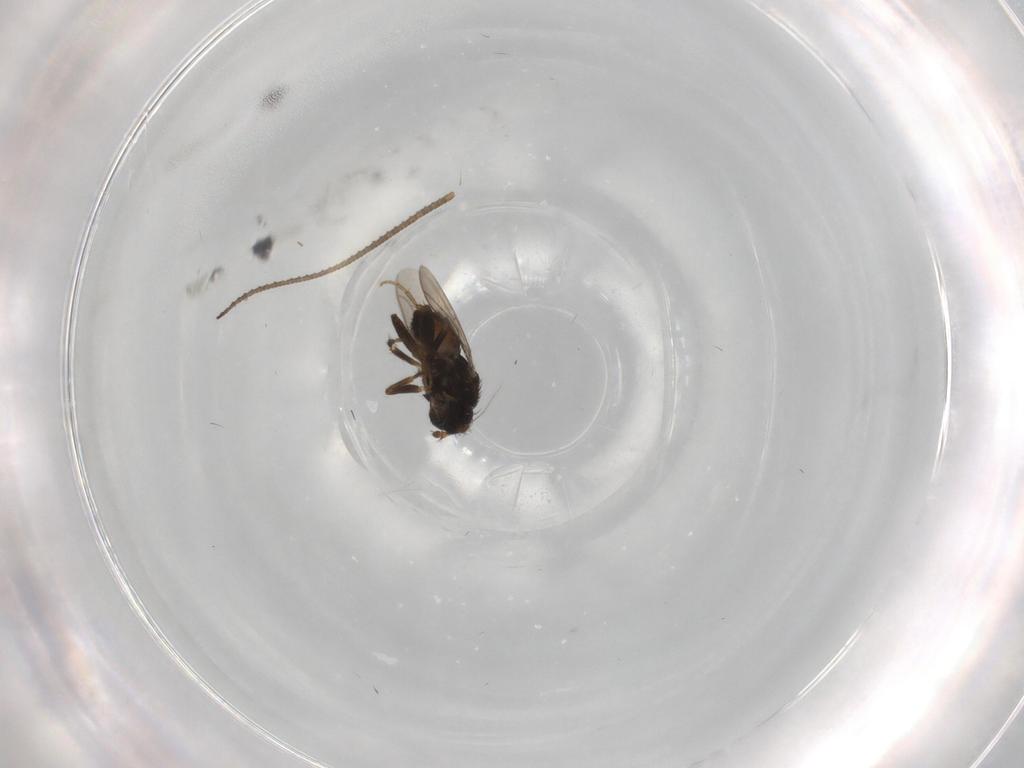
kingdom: Animalia
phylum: Arthropoda
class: Insecta
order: Diptera
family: Sphaeroceridae
